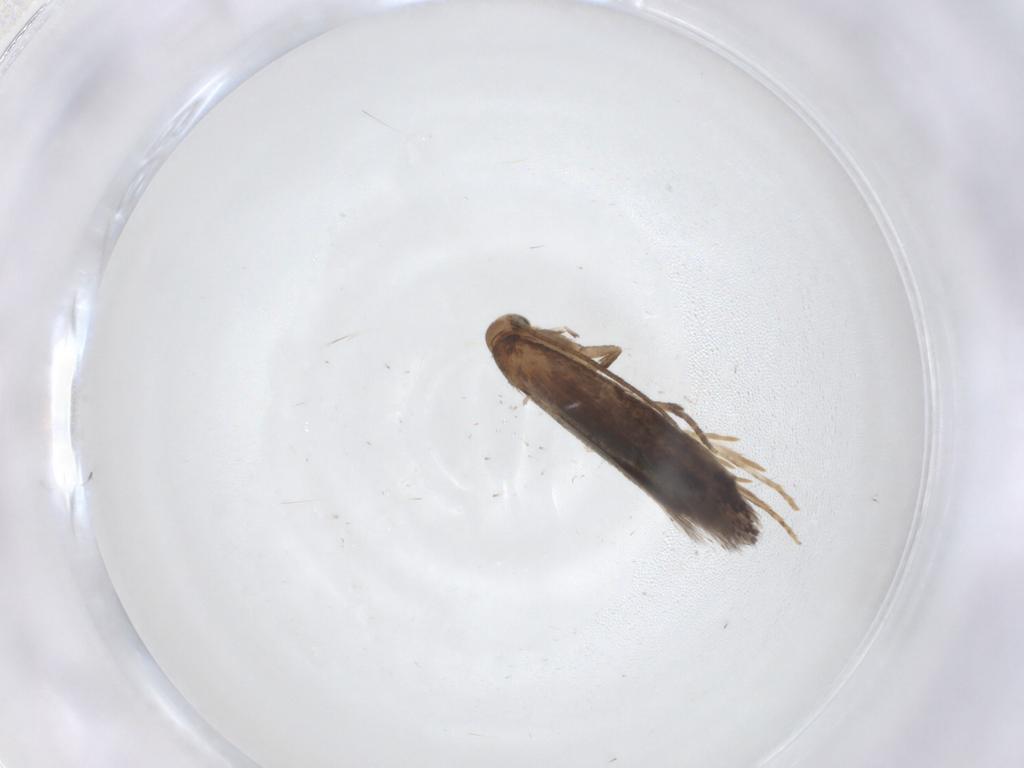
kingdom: Animalia
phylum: Arthropoda
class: Insecta
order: Lepidoptera
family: Elachistidae
